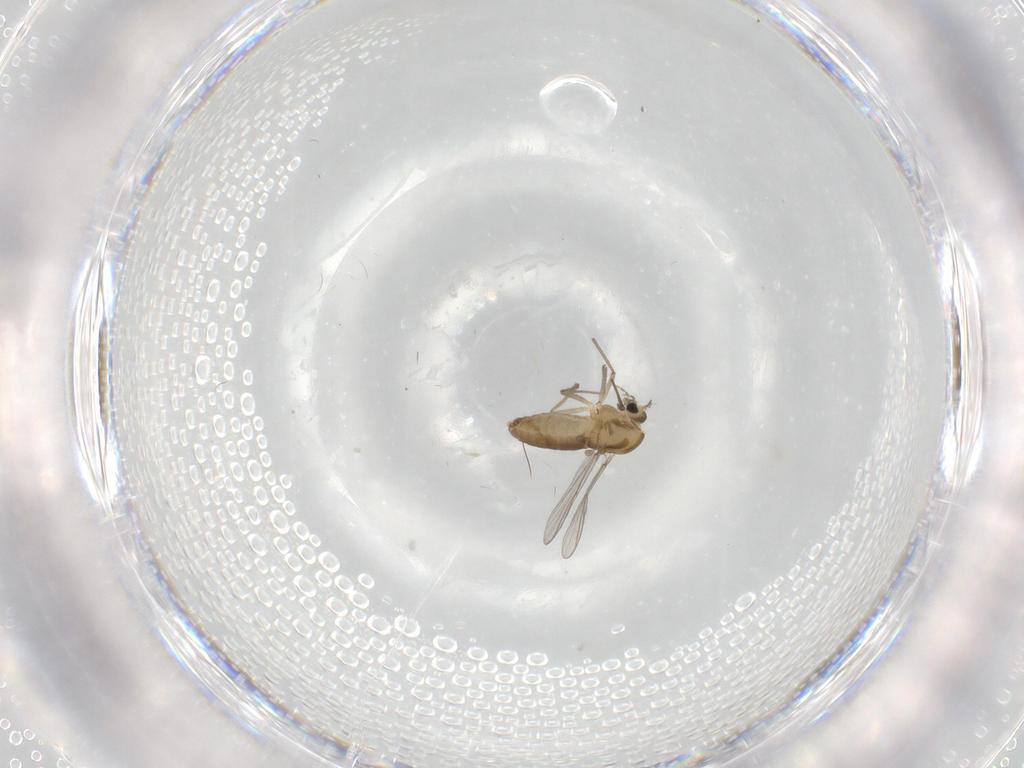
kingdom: Animalia
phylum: Arthropoda
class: Insecta
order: Diptera
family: Chironomidae
